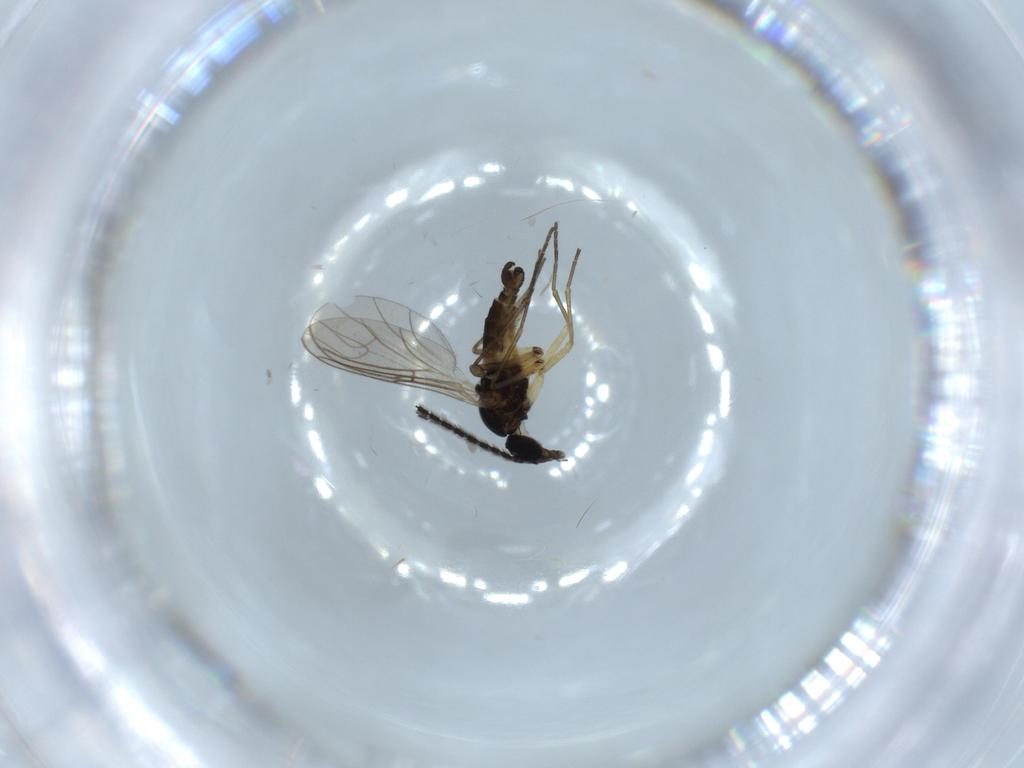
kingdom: Animalia
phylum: Arthropoda
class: Insecta
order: Diptera
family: Sciaridae
